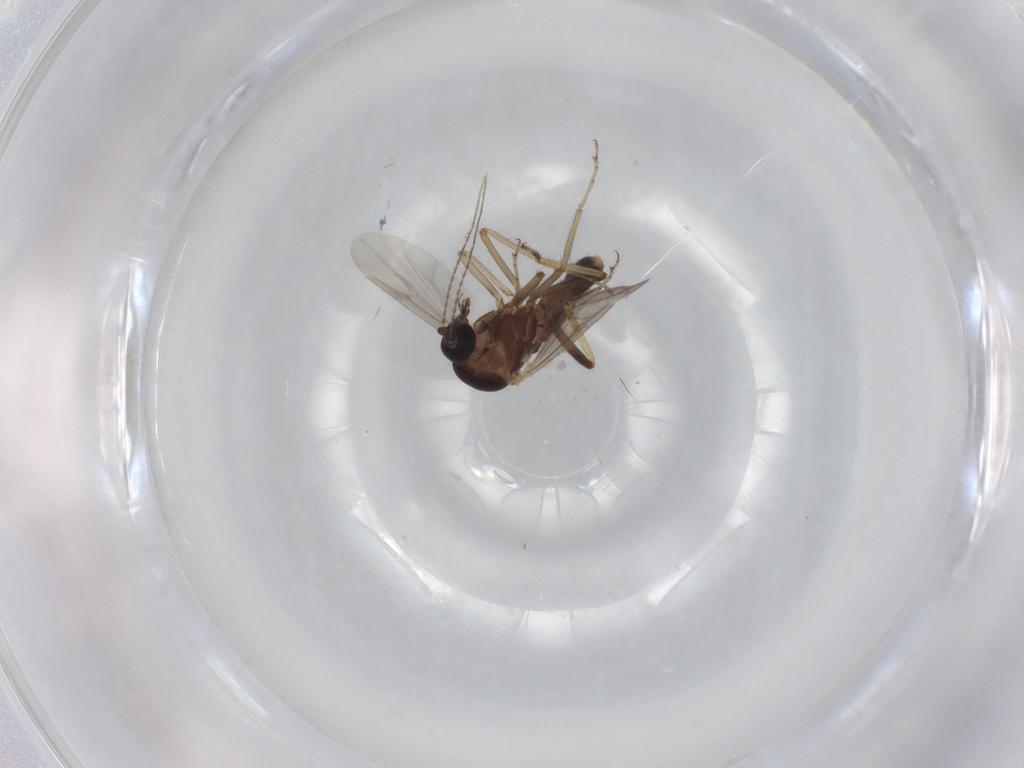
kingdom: Animalia
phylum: Arthropoda
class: Insecta
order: Diptera
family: Ceratopogonidae
